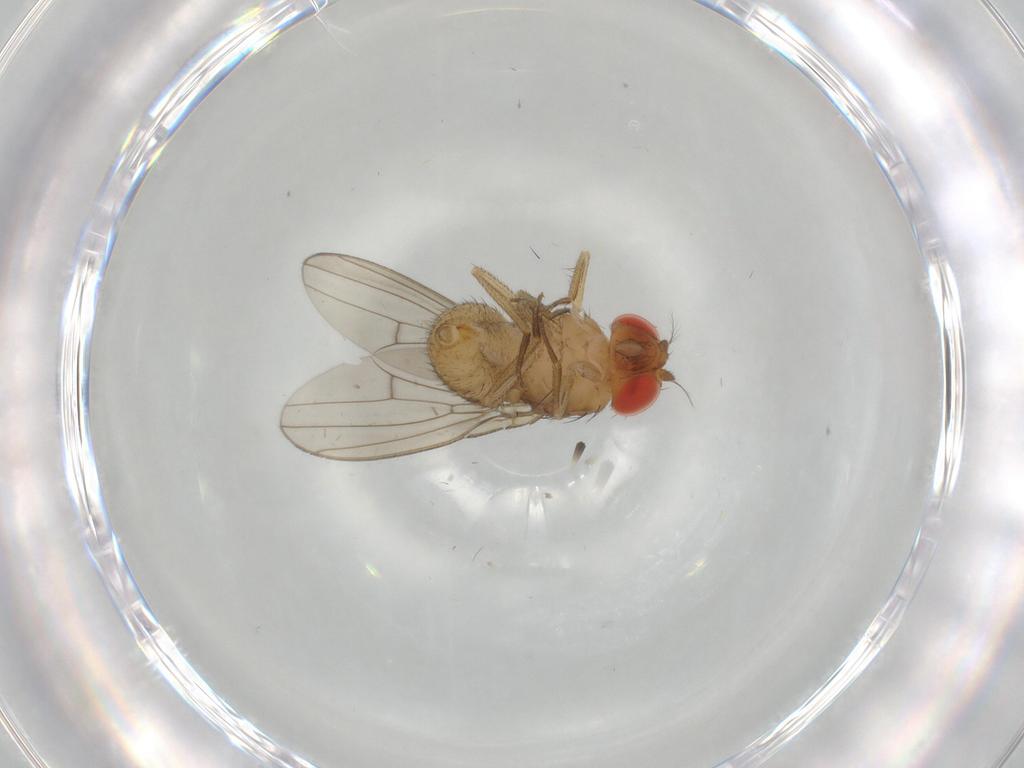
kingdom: Animalia
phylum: Arthropoda
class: Insecta
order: Diptera
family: Drosophilidae
